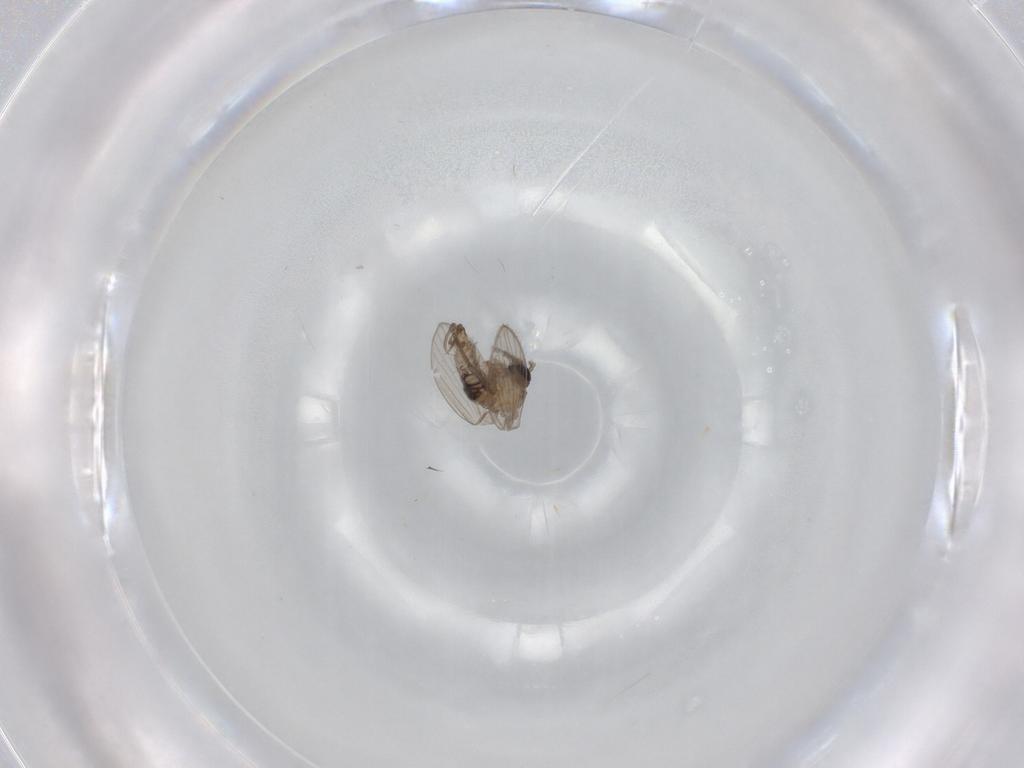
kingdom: Animalia
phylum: Arthropoda
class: Insecta
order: Diptera
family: Psychodidae
